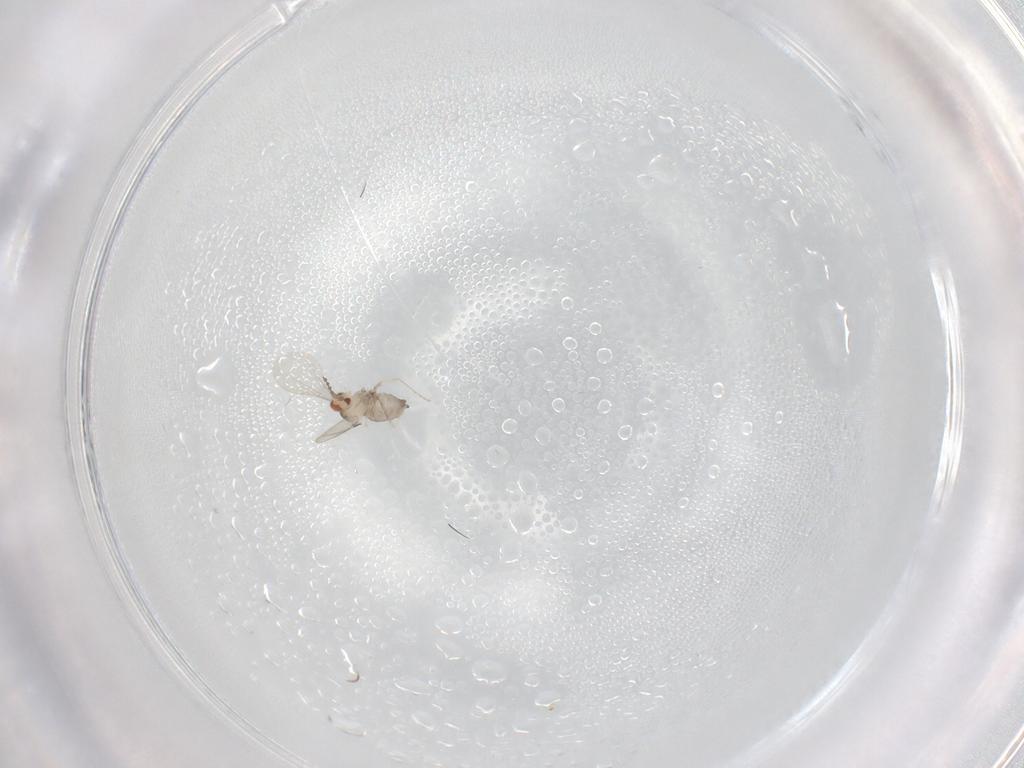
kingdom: Animalia
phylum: Arthropoda
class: Insecta
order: Diptera
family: Cecidomyiidae
